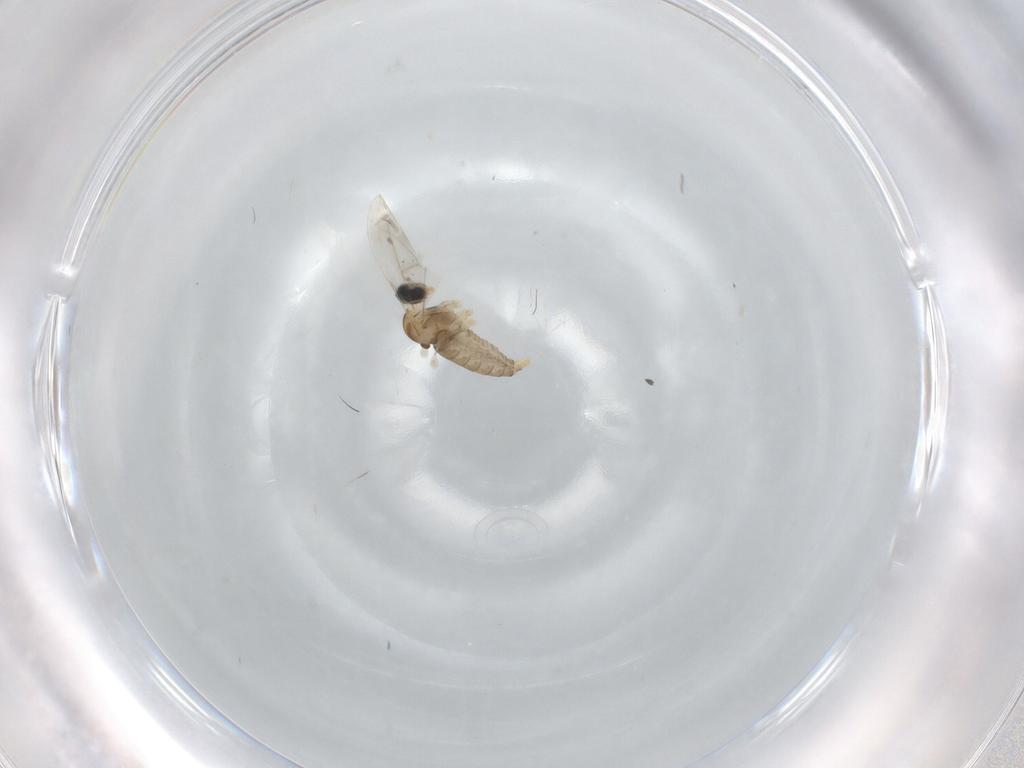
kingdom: Animalia
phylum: Arthropoda
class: Insecta
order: Diptera
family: Cecidomyiidae
